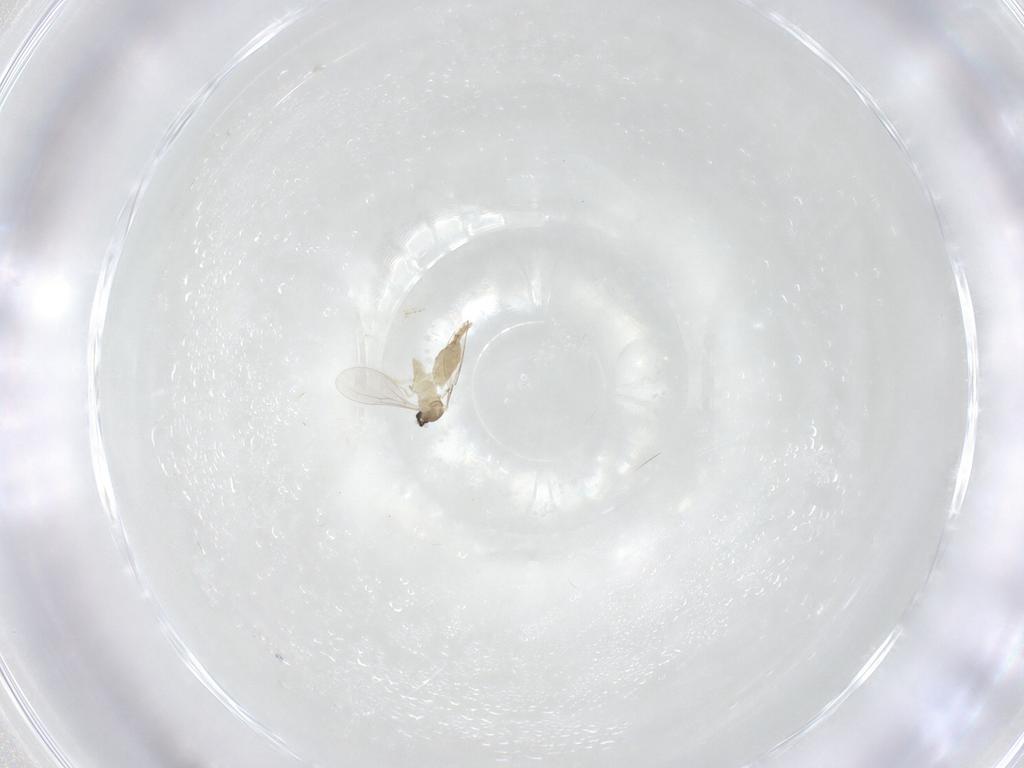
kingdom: Animalia
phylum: Arthropoda
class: Insecta
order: Diptera
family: Cecidomyiidae
